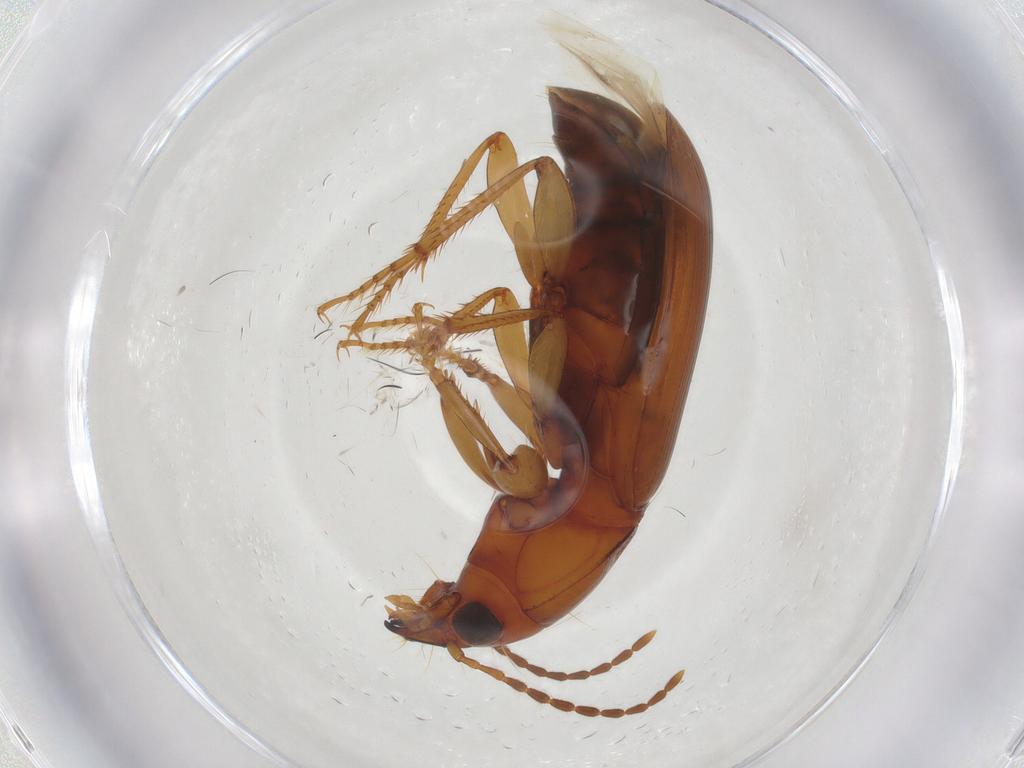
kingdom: Animalia
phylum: Arthropoda
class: Insecta
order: Coleoptera
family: Carabidae
